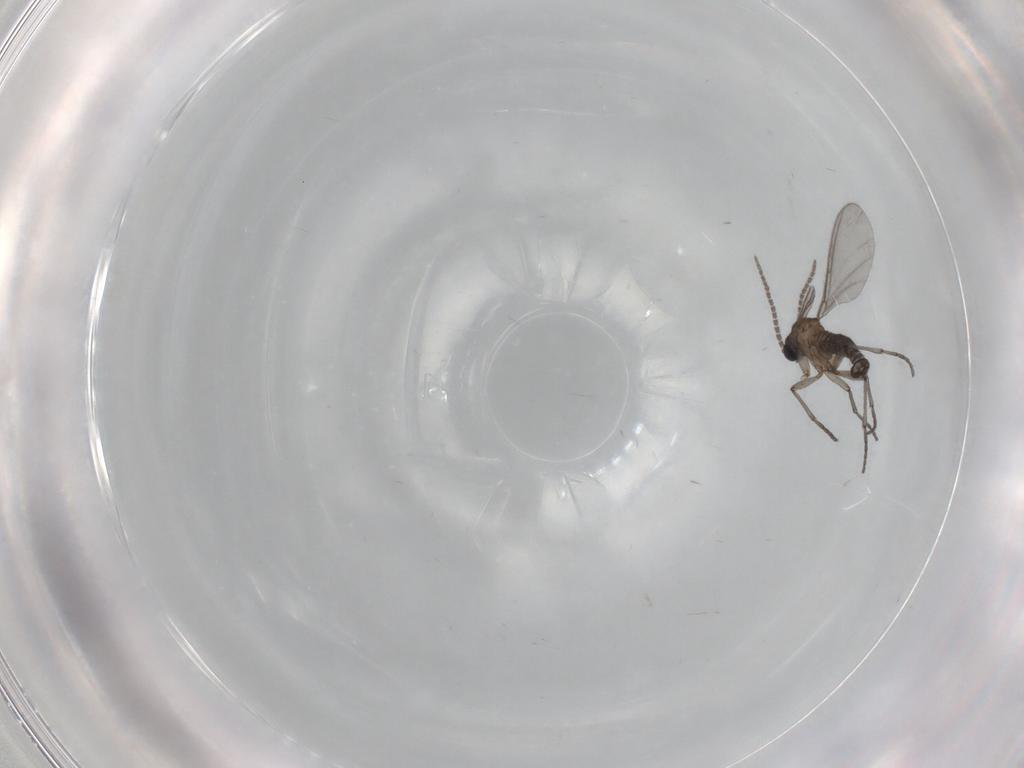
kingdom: Animalia
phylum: Arthropoda
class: Insecta
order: Diptera
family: Sciaridae
